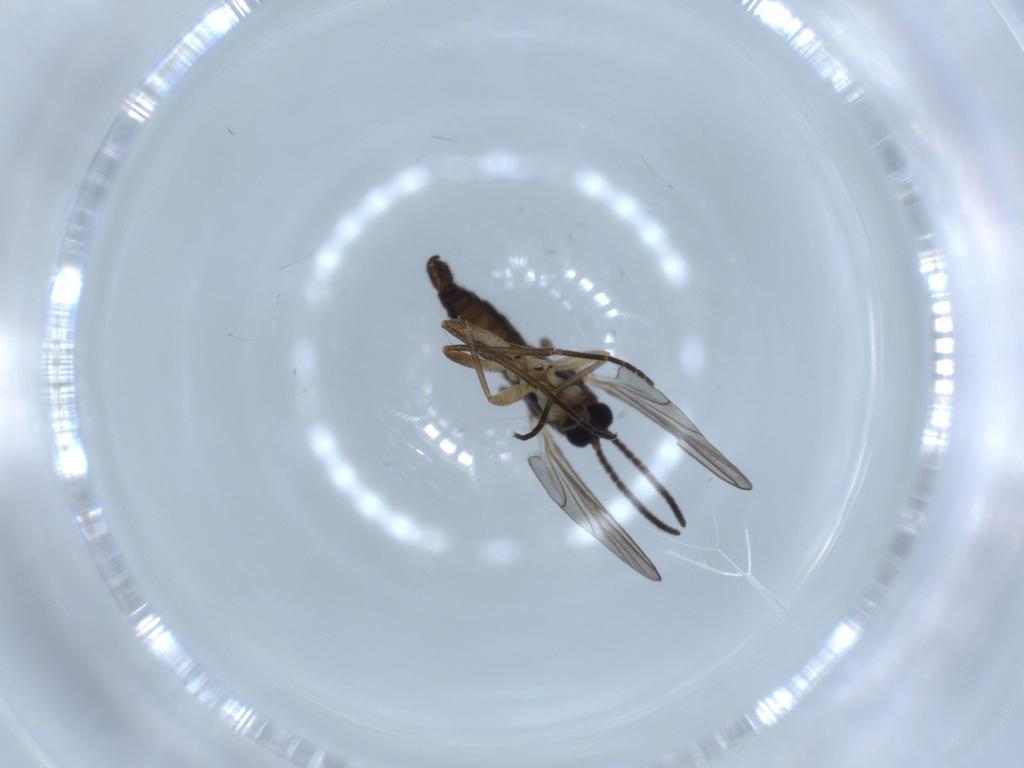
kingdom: Animalia
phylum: Arthropoda
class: Insecta
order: Diptera
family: Sciaridae
